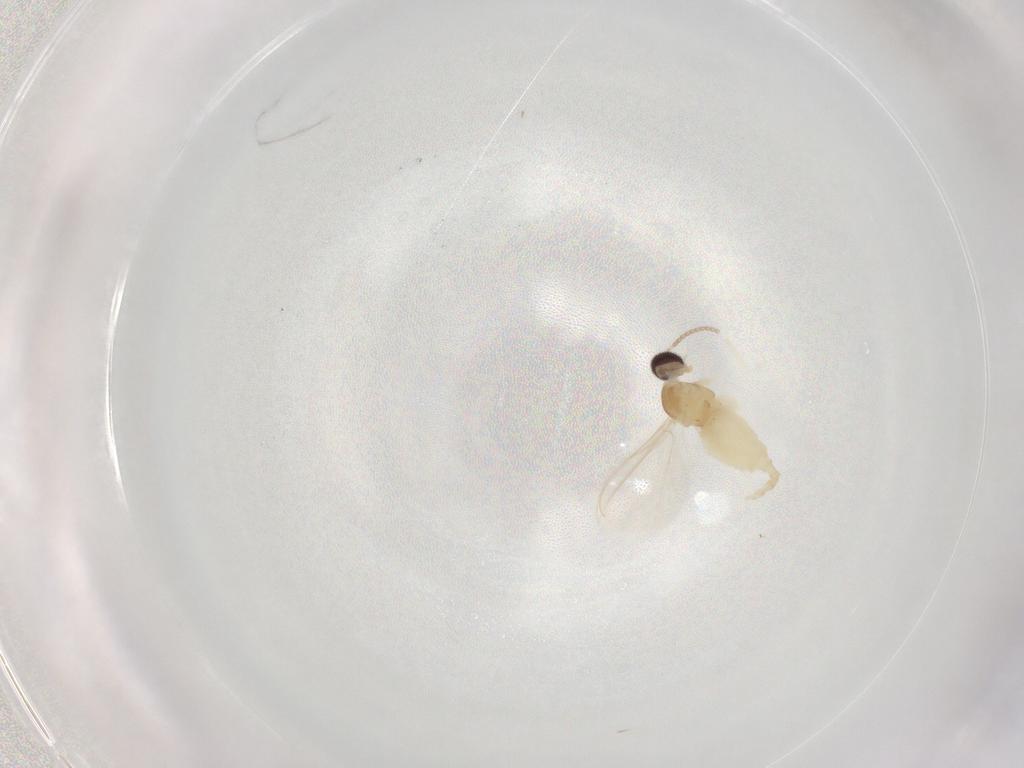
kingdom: Animalia
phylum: Arthropoda
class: Insecta
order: Diptera
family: Cecidomyiidae
